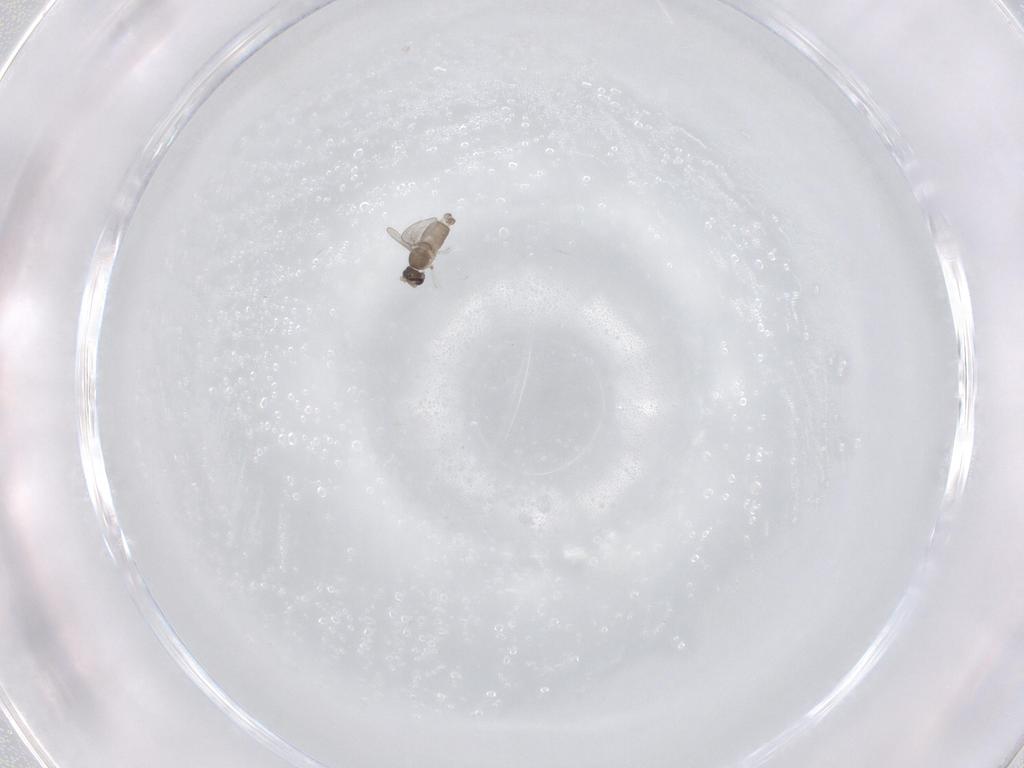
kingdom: Animalia
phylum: Arthropoda
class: Insecta
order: Diptera
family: Cecidomyiidae
